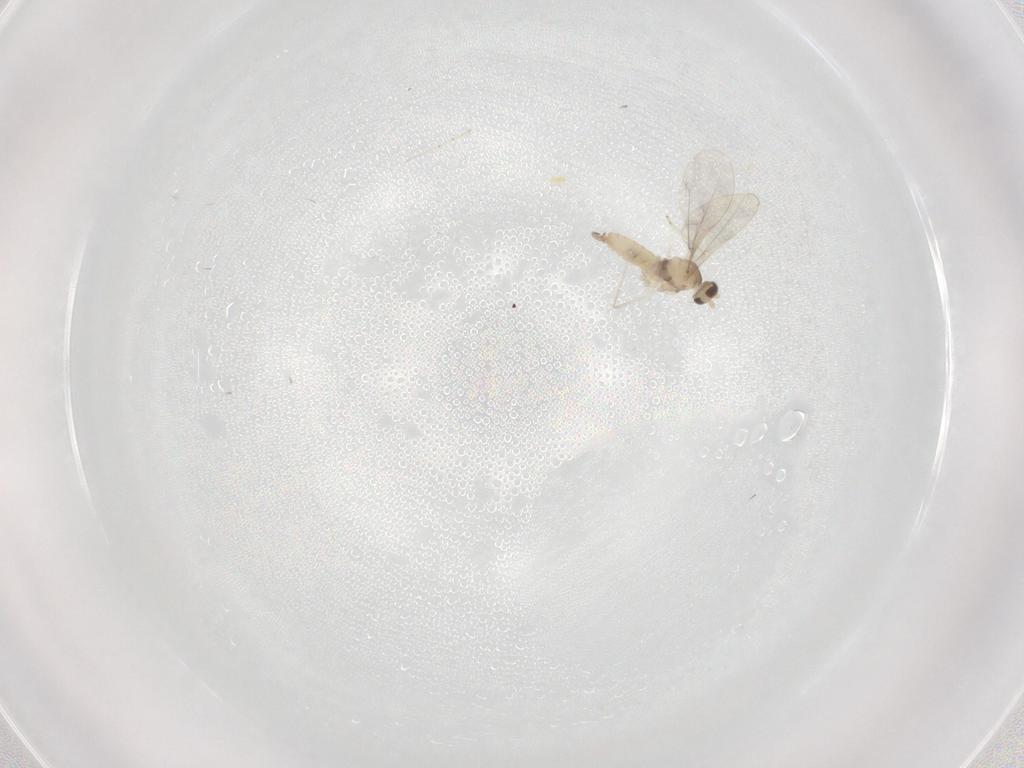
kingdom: Animalia
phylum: Arthropoda
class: Insecta
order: Diptera
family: Cecidomyiidae
